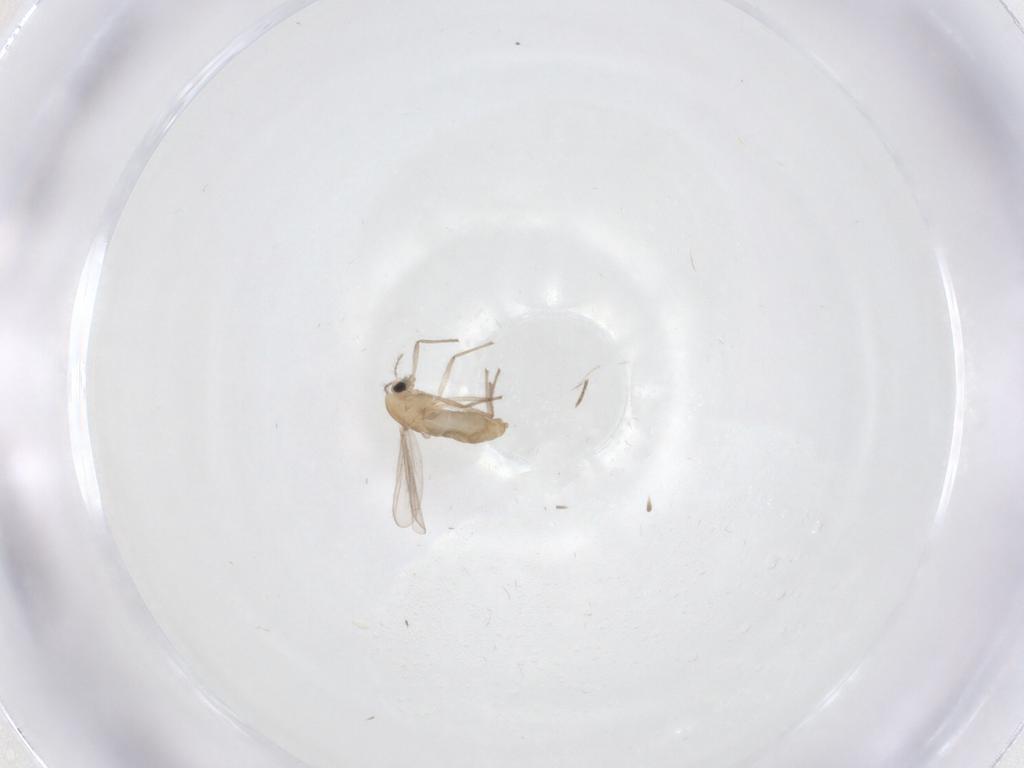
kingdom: Animalia
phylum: Arthropoda
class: Insecta
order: Diptera
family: Chironomidae
